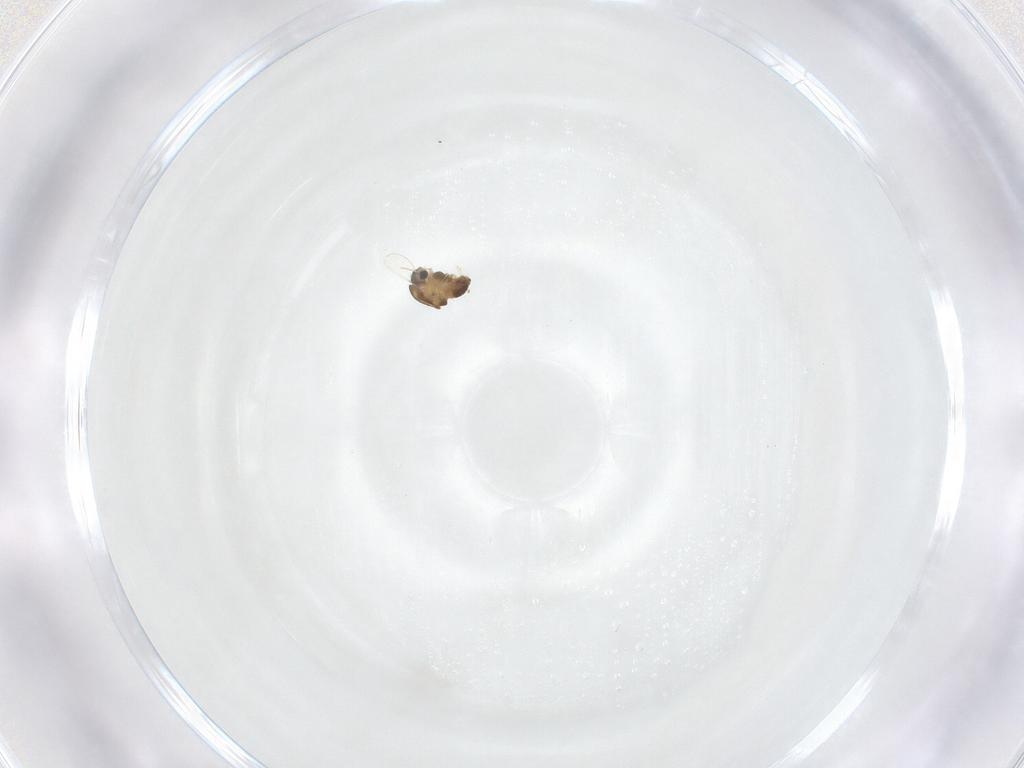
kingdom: Animalia
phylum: Arthropoda
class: Insecta
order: Diptera
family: Chironomidae
